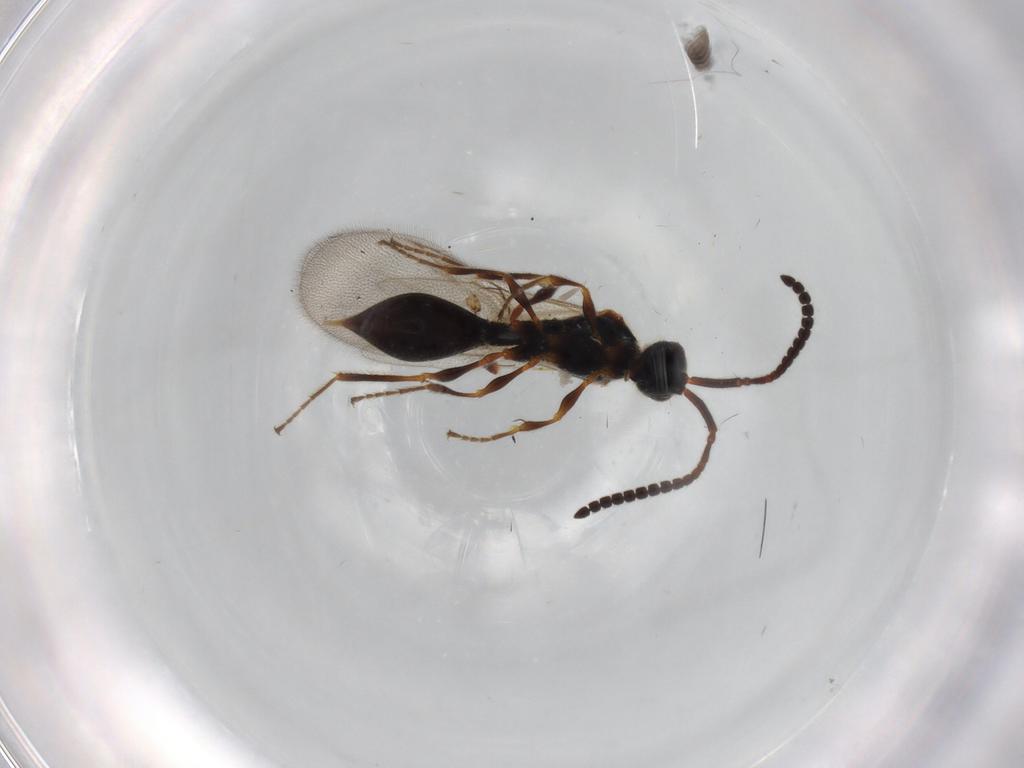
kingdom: Animalia
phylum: Arthropoda
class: Insecta
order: Hymenoptera
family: Diapriidae
